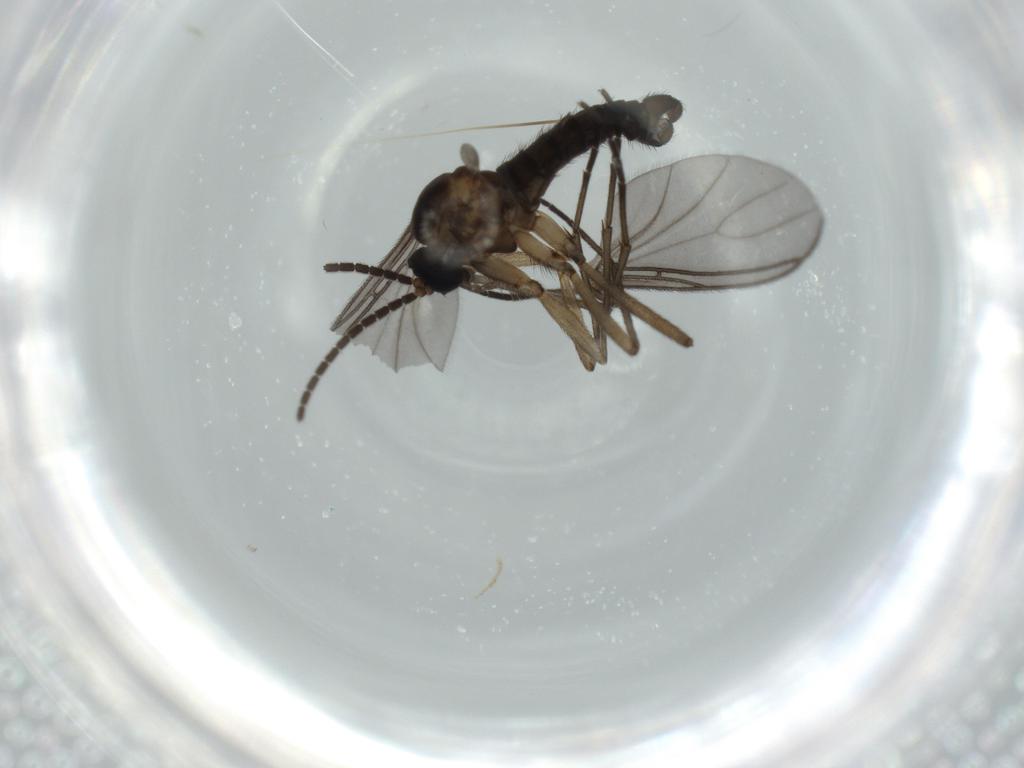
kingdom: Animalia
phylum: Arthropoda
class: Insecta
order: Diptera
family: Sciaridae
